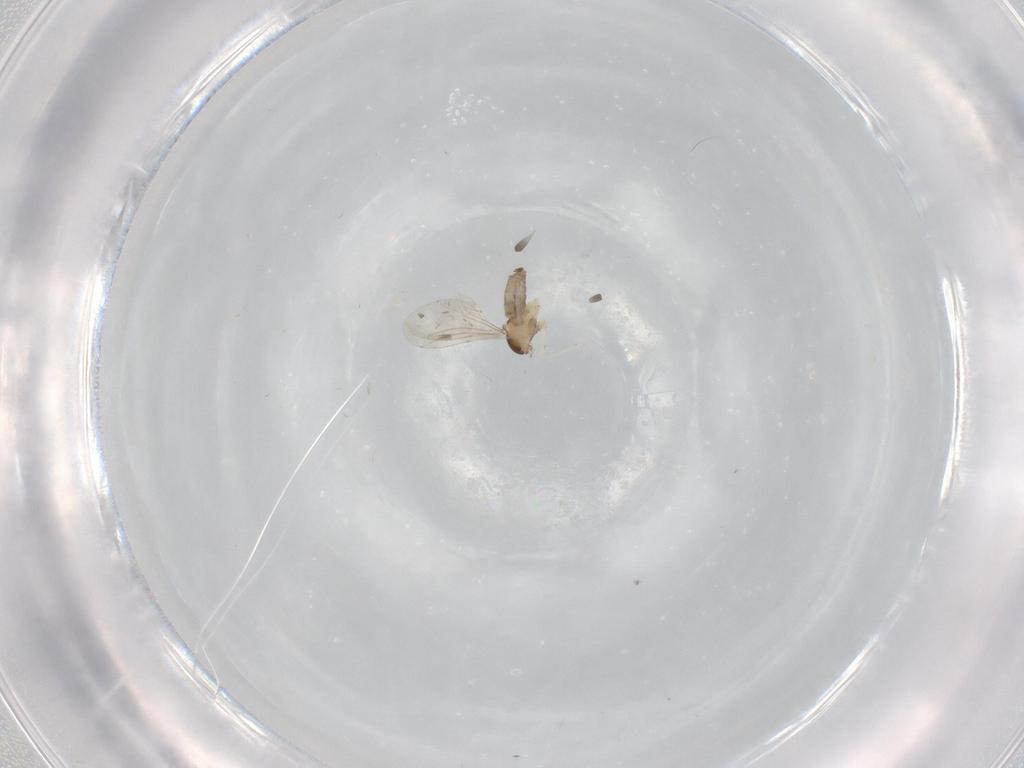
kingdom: Animalia
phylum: Arthropoda
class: Insecta
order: Diptera
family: Cecidomyiidae
